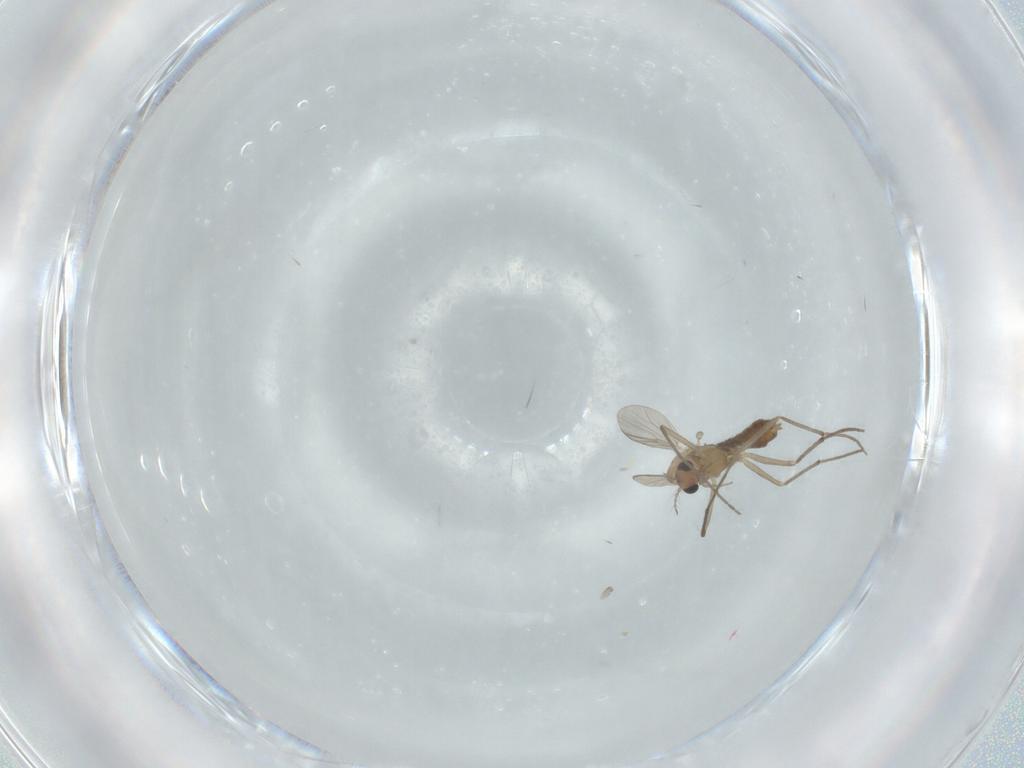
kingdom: Animalia
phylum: Arthropoda
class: Insecta
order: Diptera
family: Chironomidae
